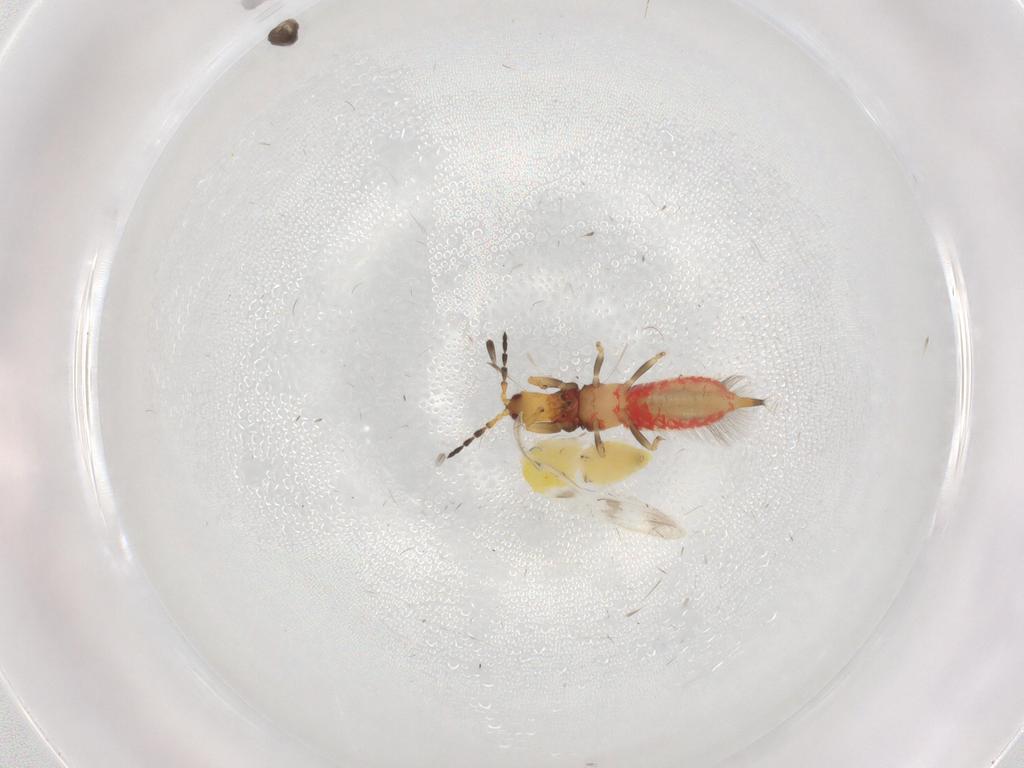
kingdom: Animalia
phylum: Arthropoda
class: Insecta
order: Thysanoptera
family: Phlaeothripidae
